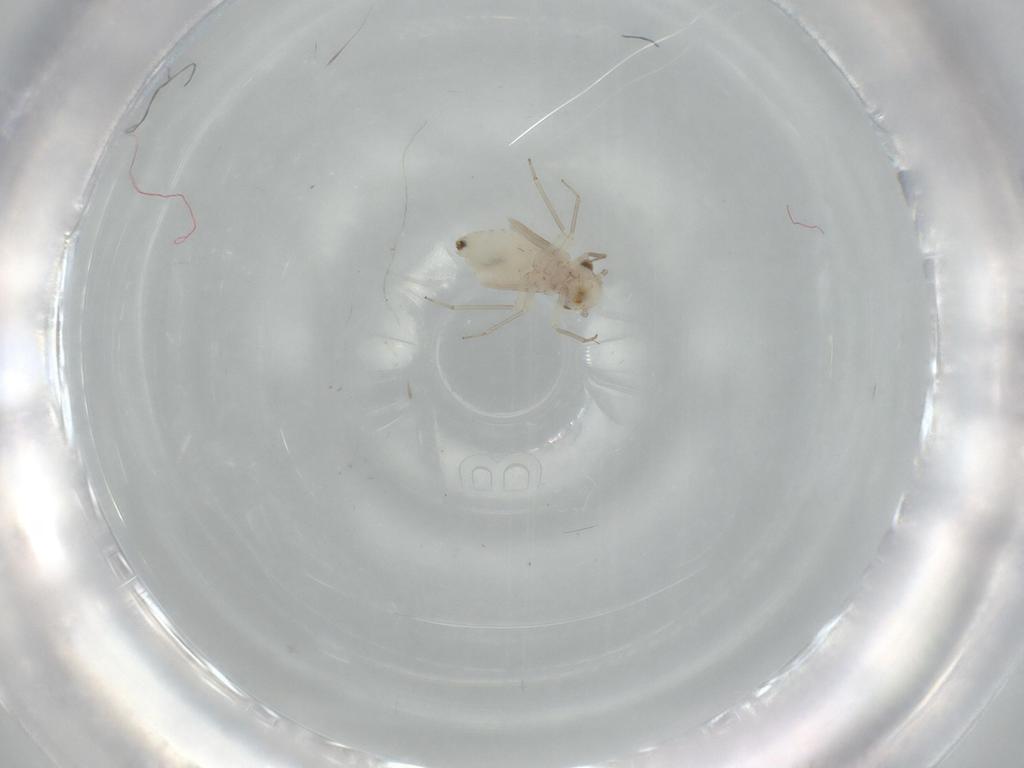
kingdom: Animalia
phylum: Arthropoda
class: Insecta
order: Psocodea
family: Lachesillidae
